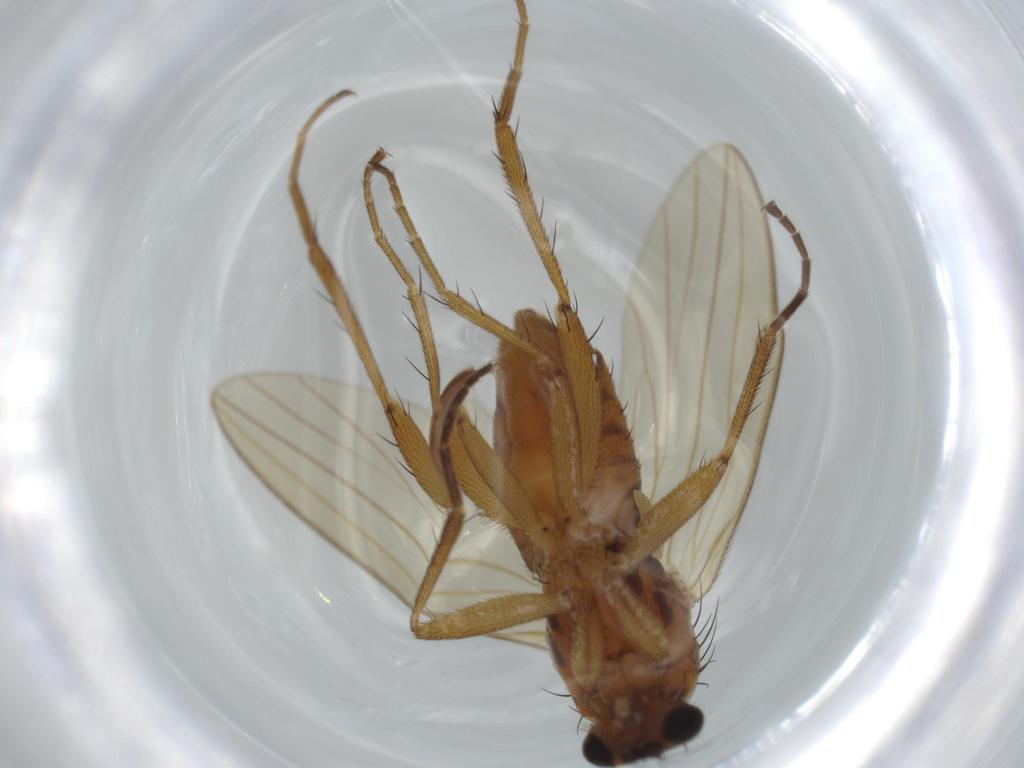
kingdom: Animalia
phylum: Arthropoda
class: Insecta
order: Diptera
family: Lonchopteridae
